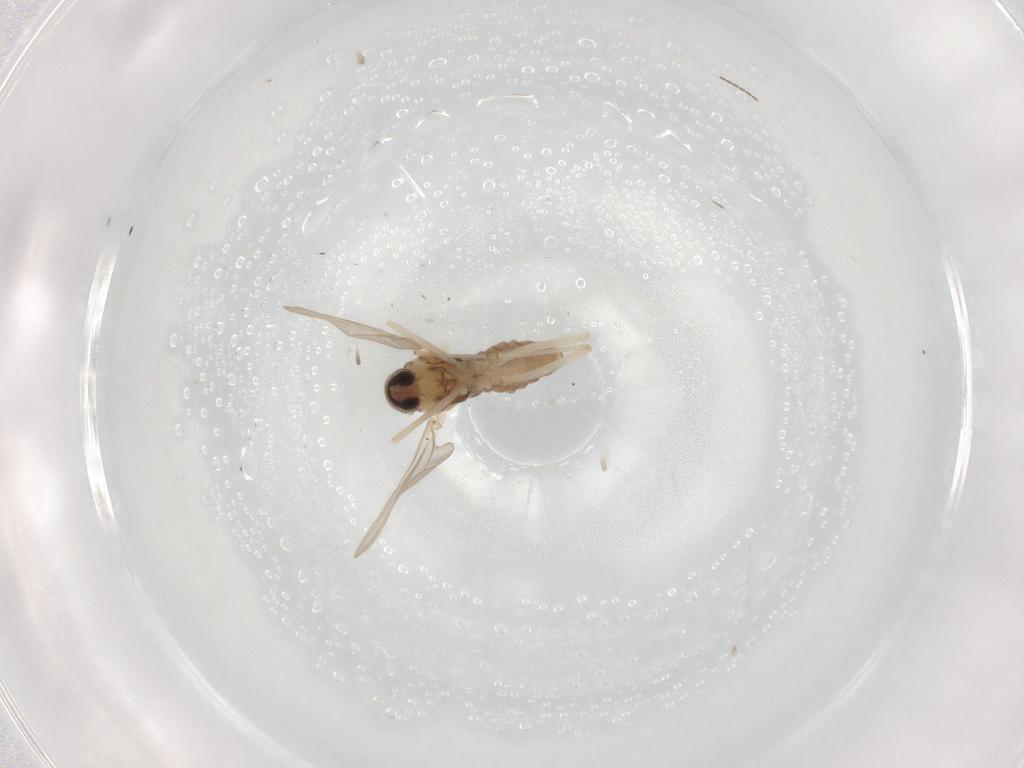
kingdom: Animalia
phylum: Arthropoda
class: Insecta
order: Diptera
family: Cecidomyiidae
